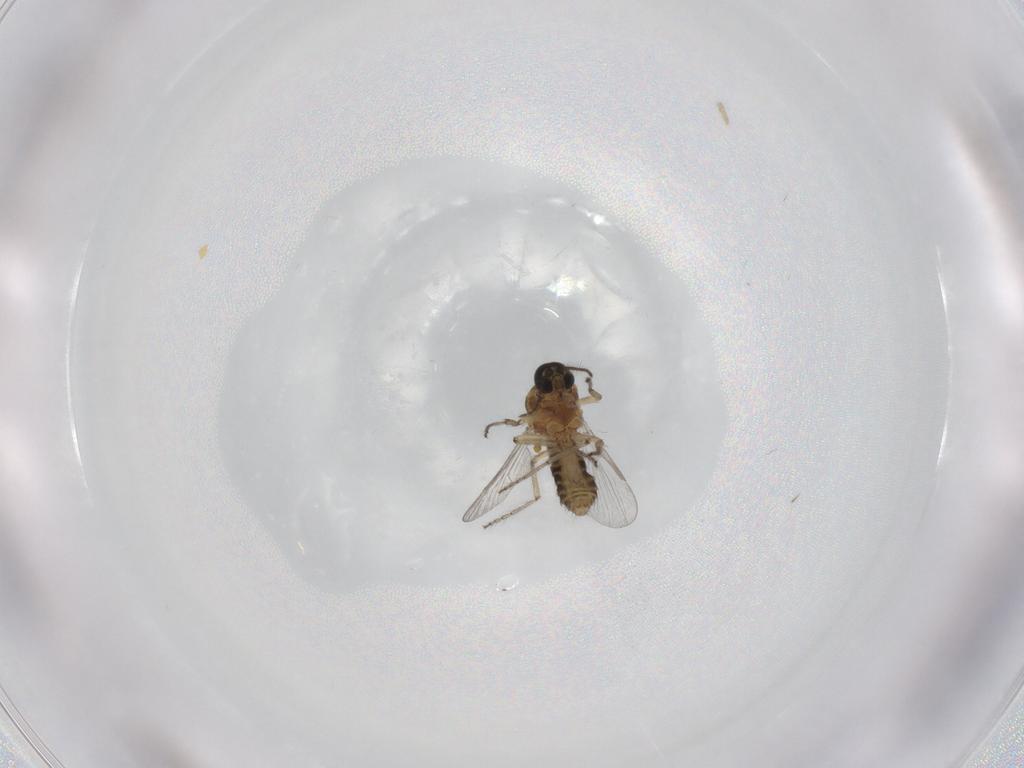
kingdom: Animalia
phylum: Arthropoda
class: Insecta
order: Diptera
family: Ceratopogonidae
